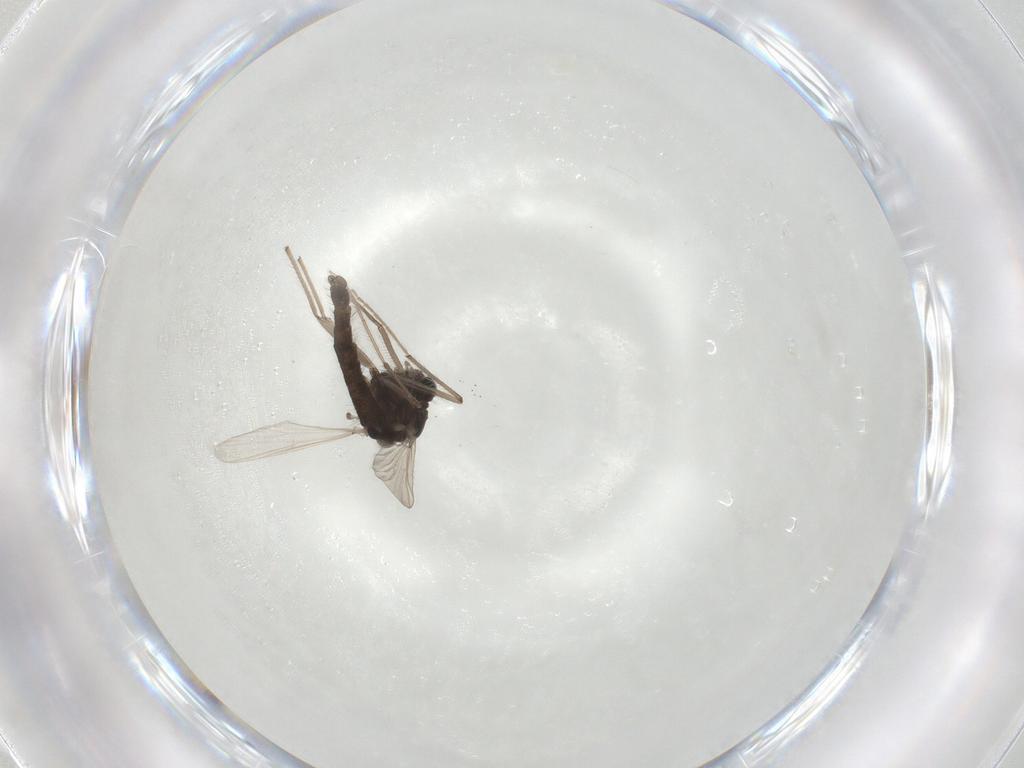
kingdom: Animalia
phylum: Arthropoda
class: Insecta
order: Diptera
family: Chironomidae
